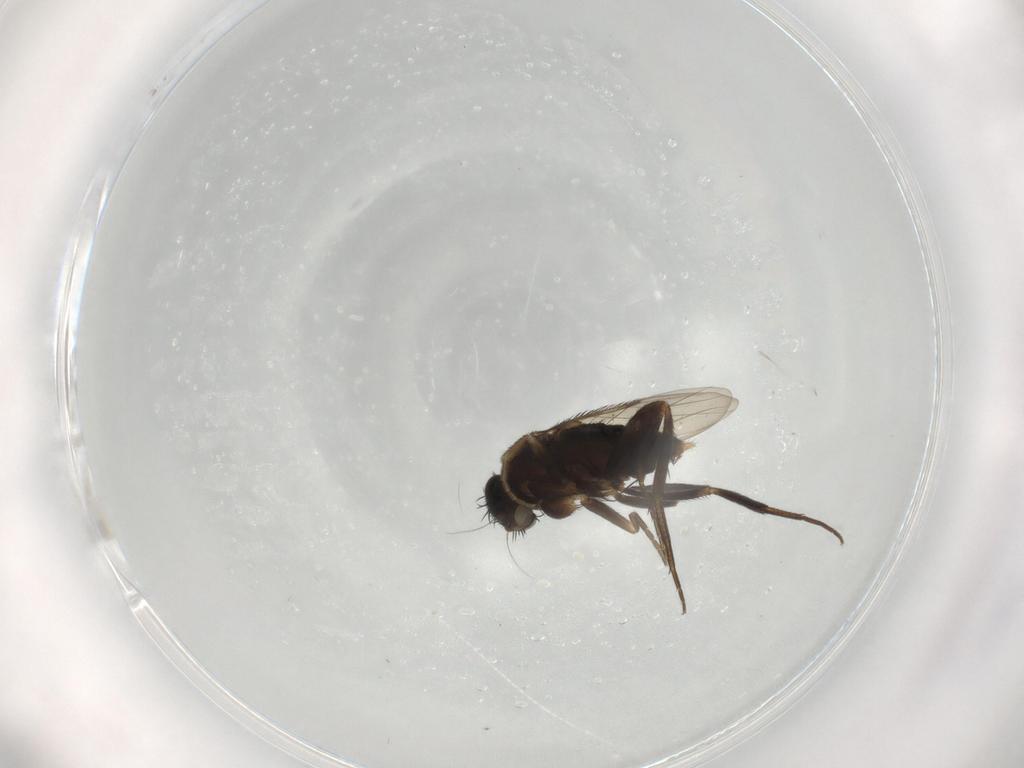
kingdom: Animalia
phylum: Arthropoda
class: Insecta
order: Diptera
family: Phoridae
